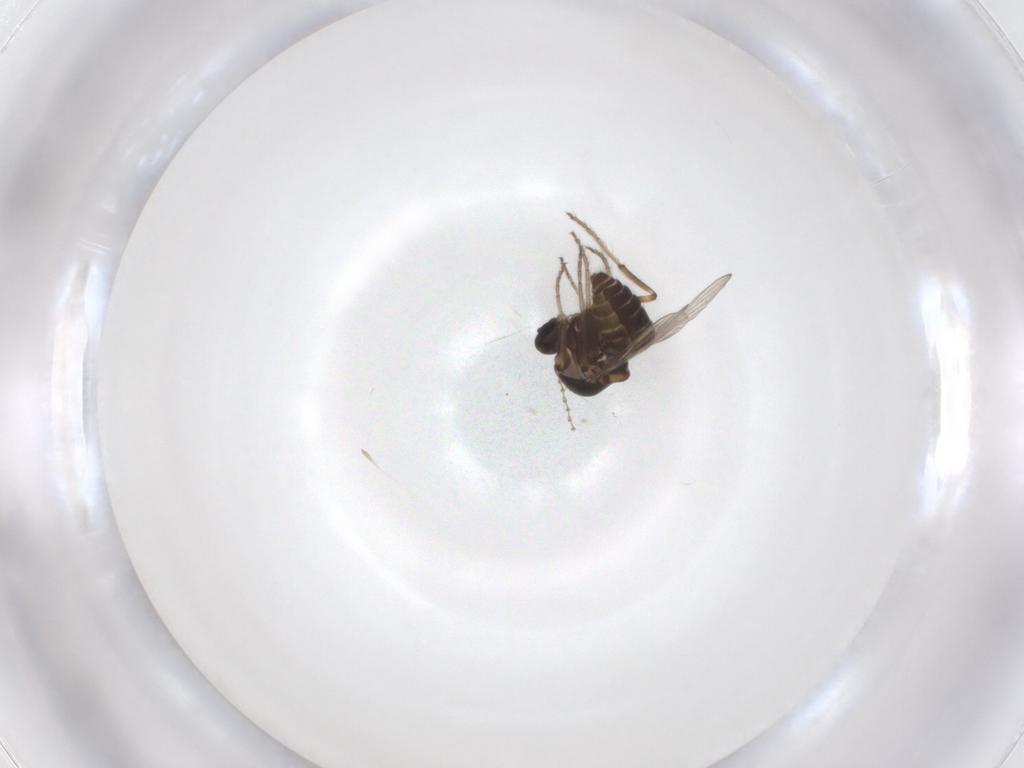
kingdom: Animalia
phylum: Arthropoda
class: Insecta
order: Diptera
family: Ceratopogonidae
